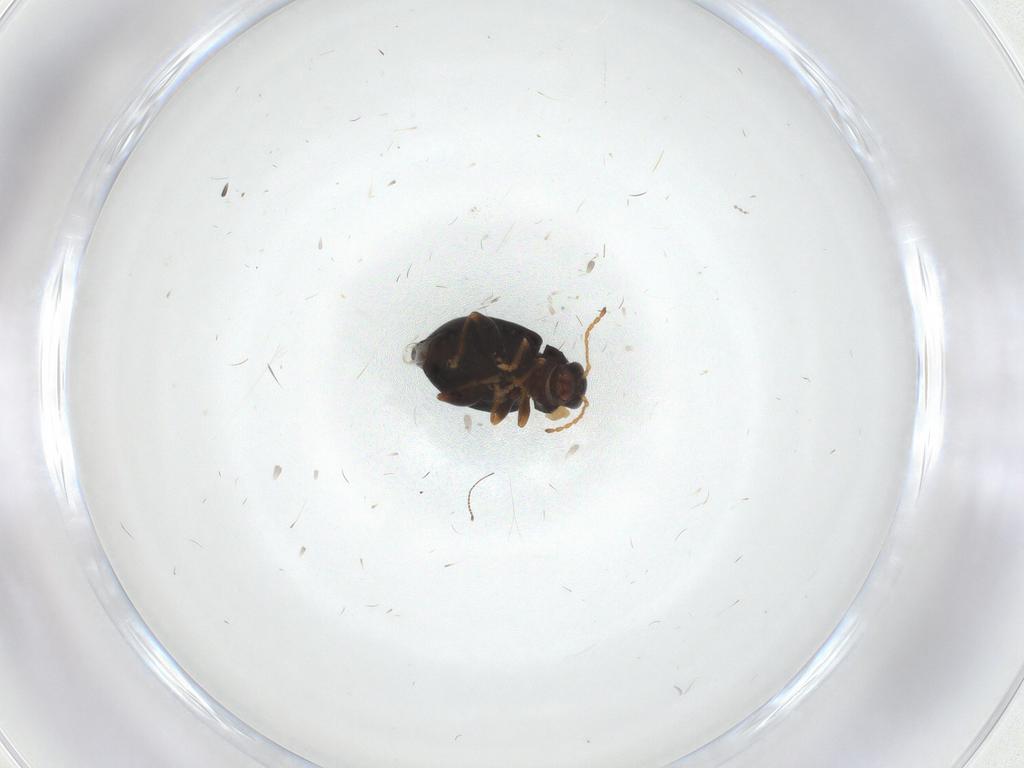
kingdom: Animalia
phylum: Arthropoda
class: Insecta
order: Coleoptera
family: Chrysomelidae
